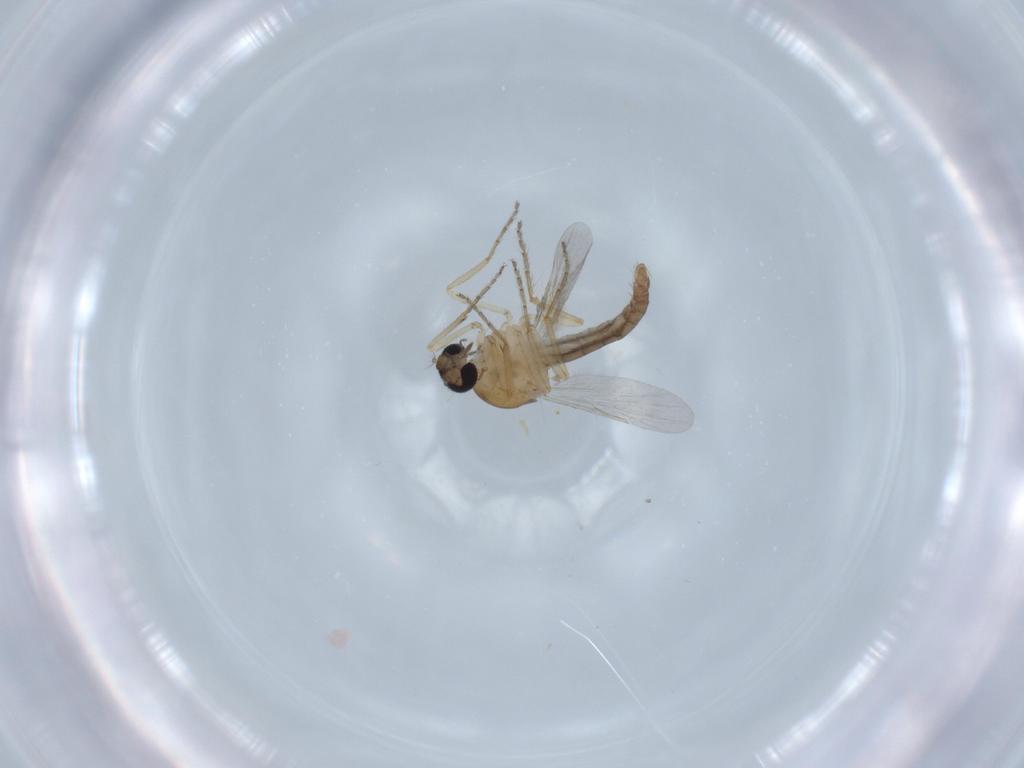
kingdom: Animalia
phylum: Arthropoda
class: Insecta
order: Diptera
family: Ceratopogonidae
